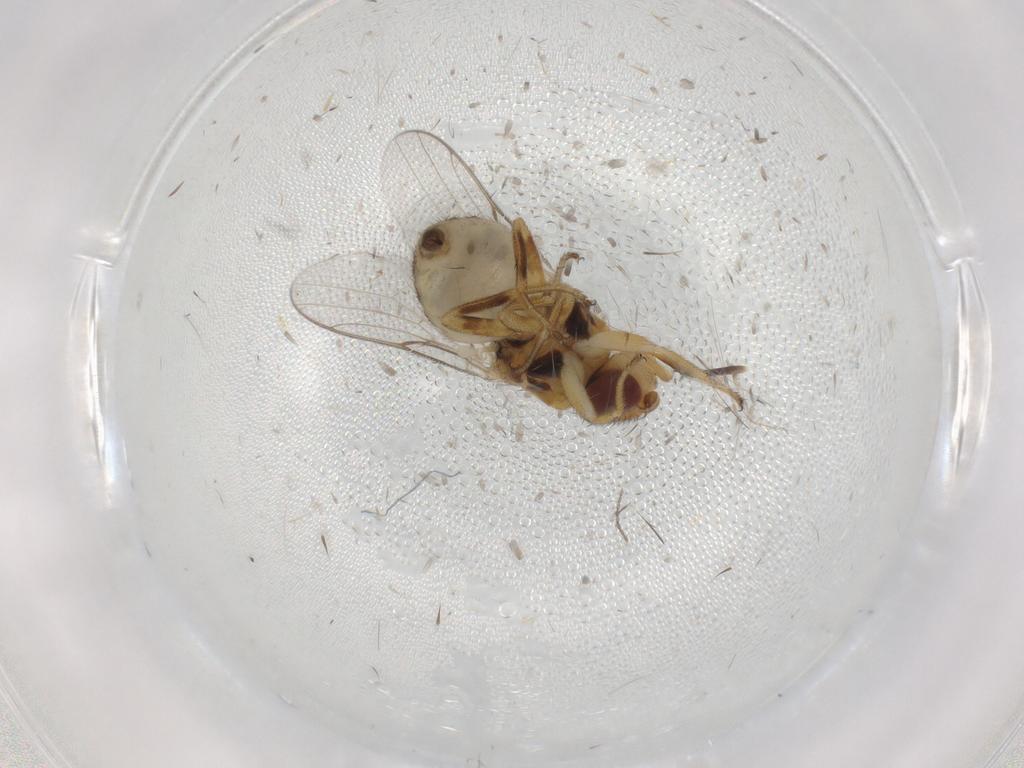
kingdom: Animalia
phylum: Arthropoda
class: Insecta
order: Diptera
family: Chloropidae
